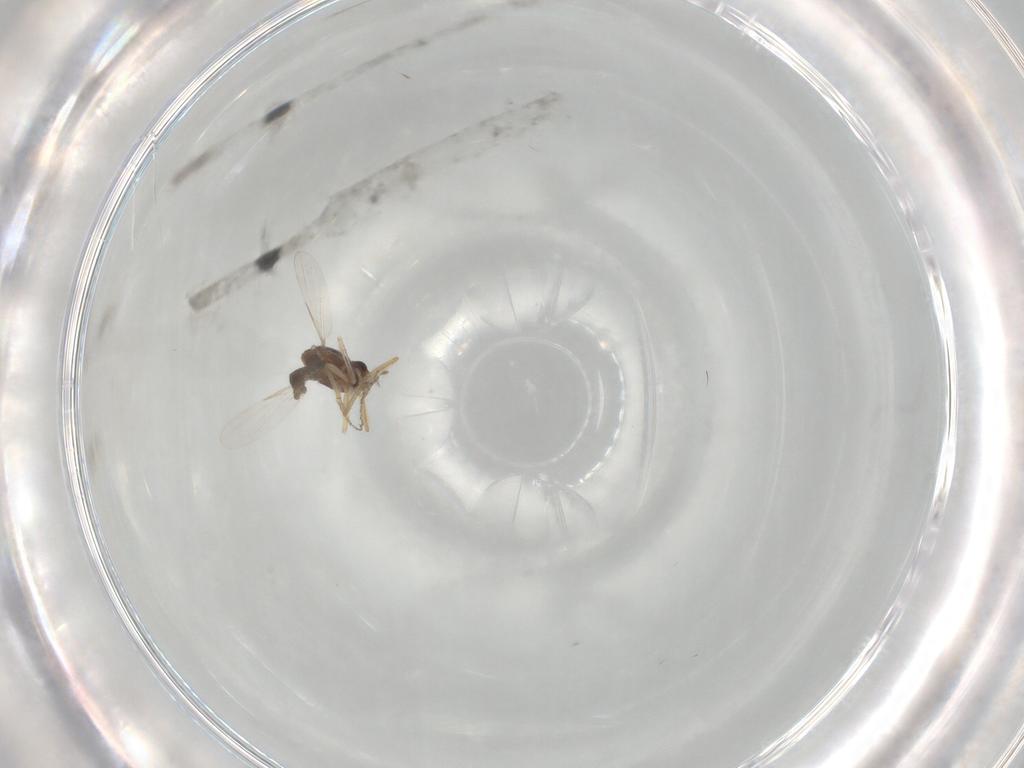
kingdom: Animalia
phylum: Arthropoda
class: Insecta
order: Diptera
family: Ceratopogonidae
